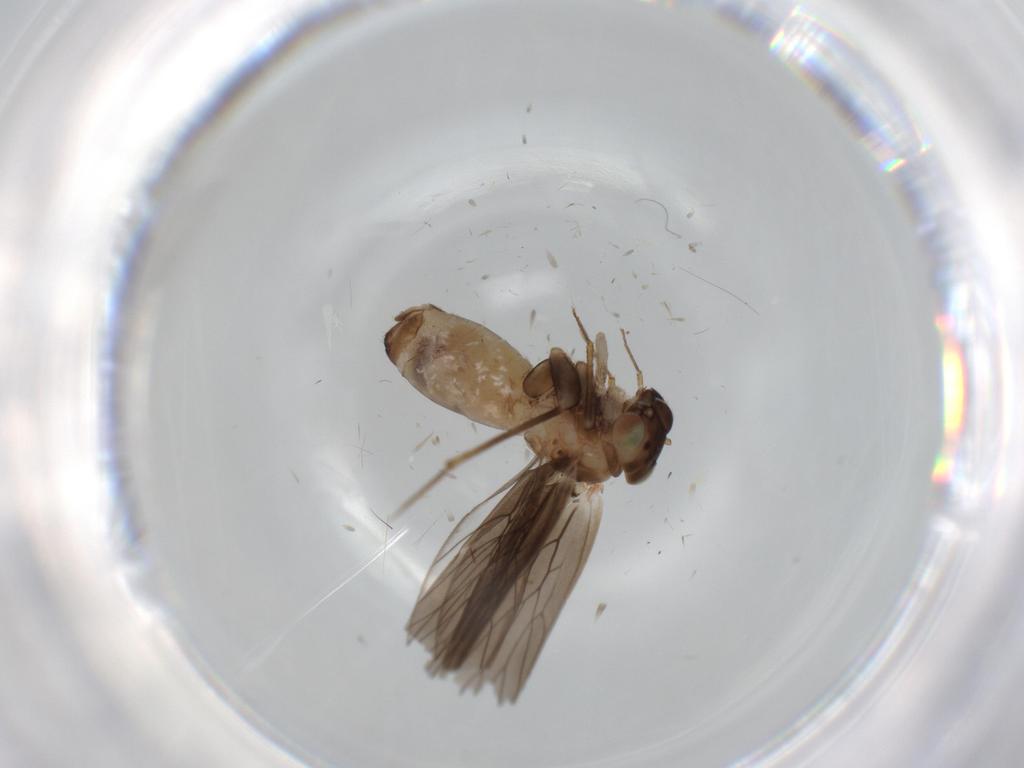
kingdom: Animalia
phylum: Arthropoda
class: Insecta
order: Psocodea
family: Lepidopsocidae
